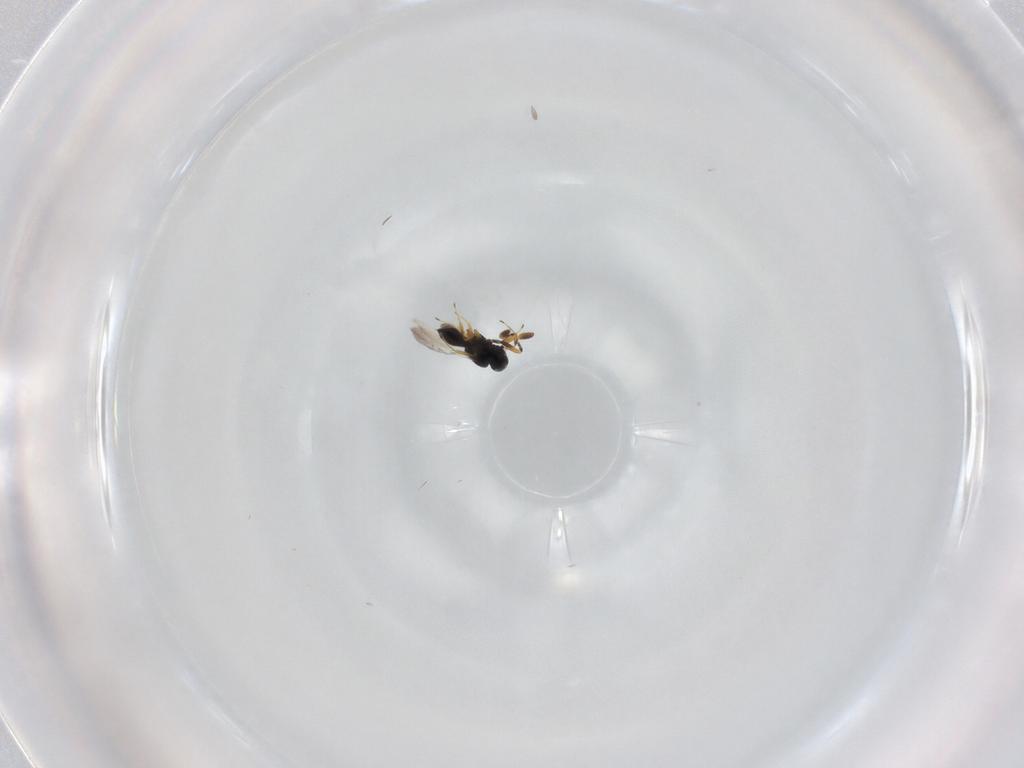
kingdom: Animalia
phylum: Arthropoda
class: Insecta
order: Hymenoptera
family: Scelionidae
